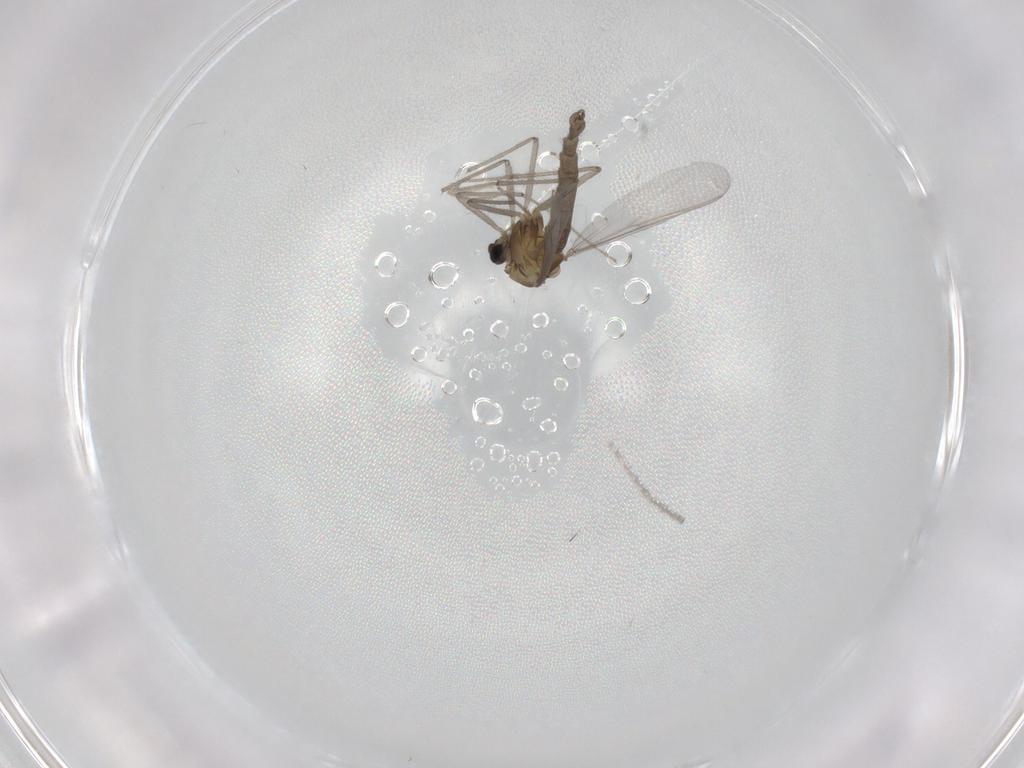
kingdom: Animalia
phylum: Arthropoda
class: Insecta
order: Diptera
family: Chironomidae
